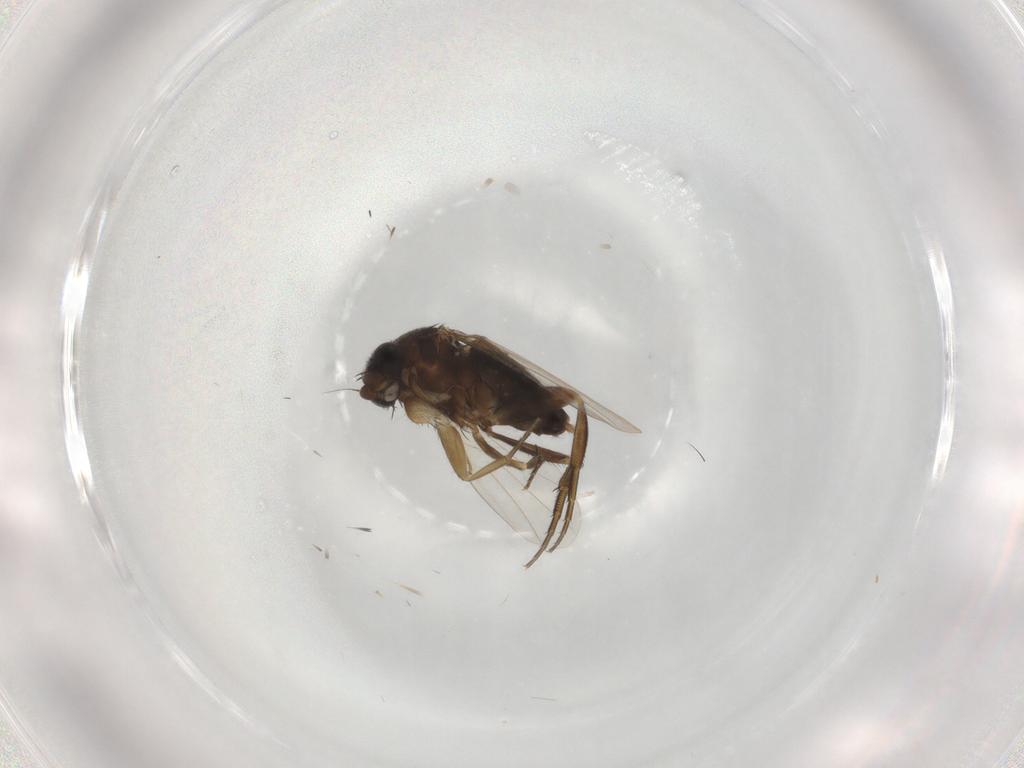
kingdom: Animalia
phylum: Arthropoda
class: Insecta
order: Diptera
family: Phoridae
